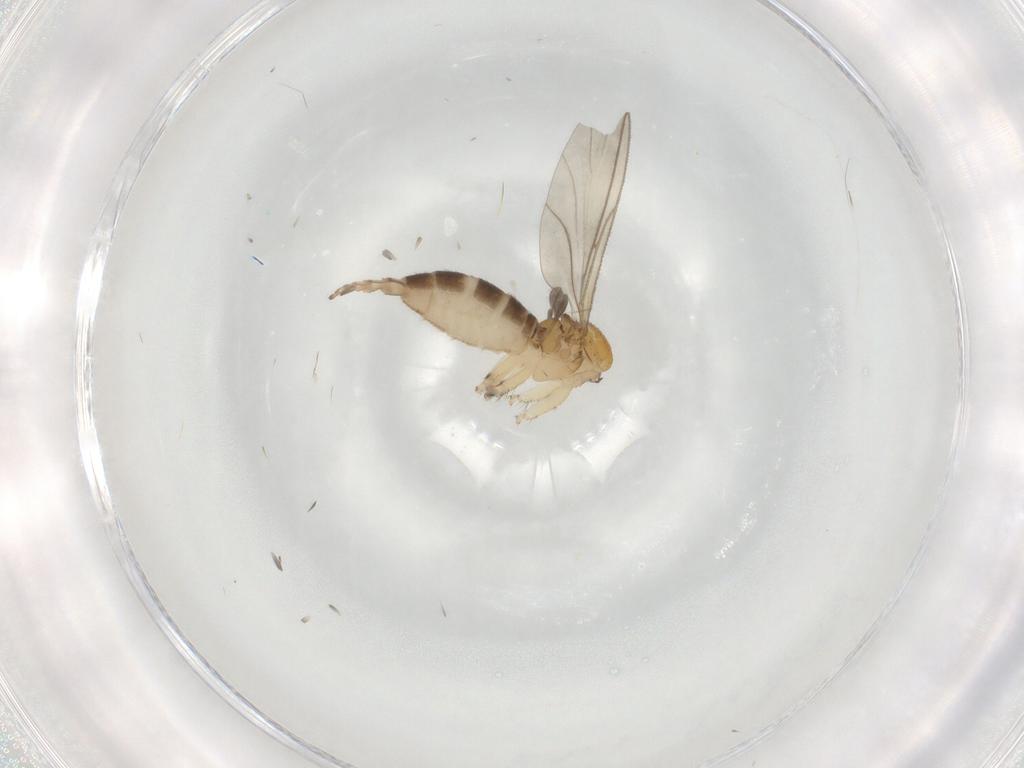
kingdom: Animalia
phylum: Arthropoda
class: Insecta
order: Diptera
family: Sciaridae
